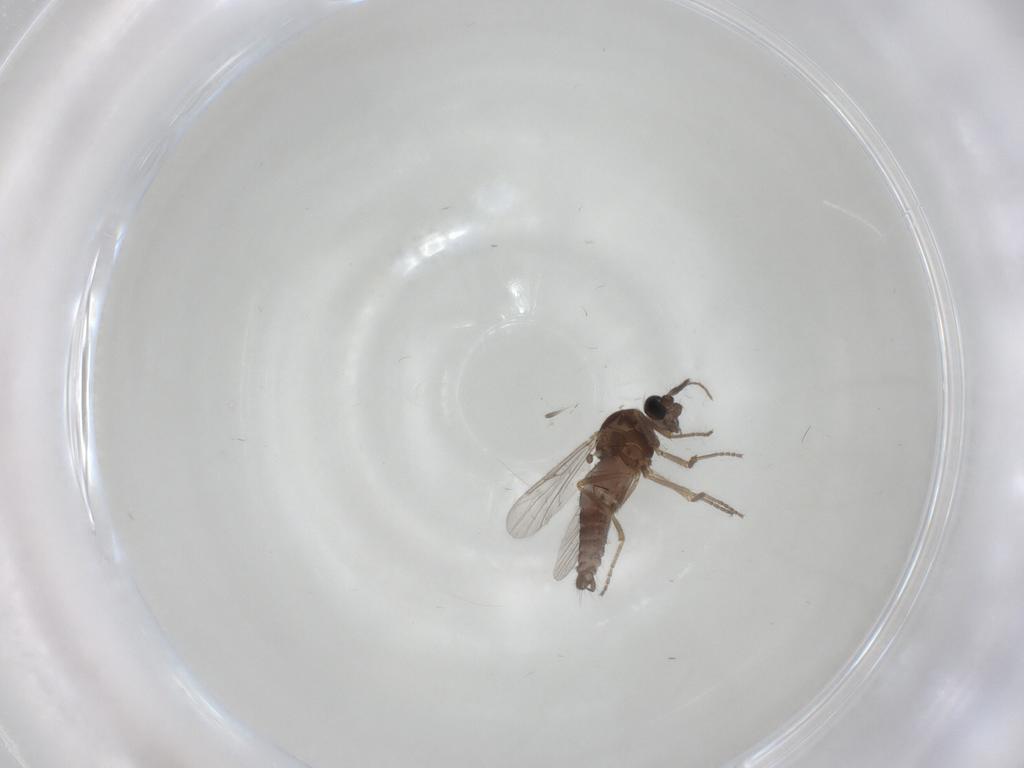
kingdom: Animalia
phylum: Arthropoda
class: Insecta
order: Diptera
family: Ceratopogonidae
